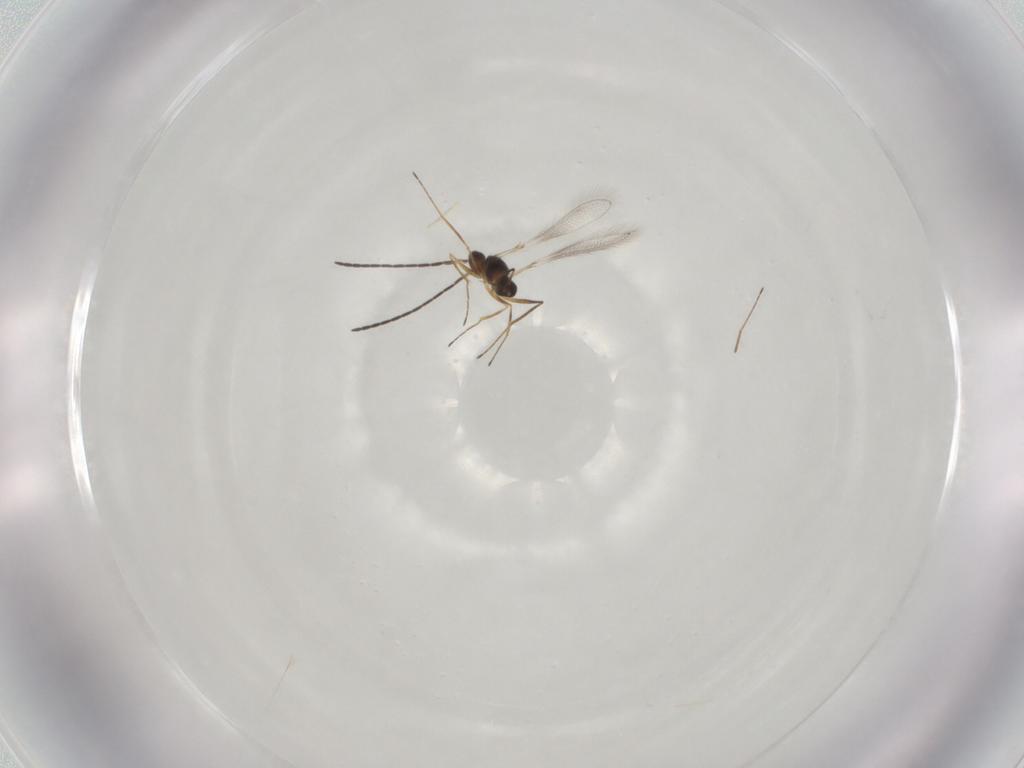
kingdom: Animalia
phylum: Arthropoda
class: Insecta
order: Hymenoptera
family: Mymaridae
